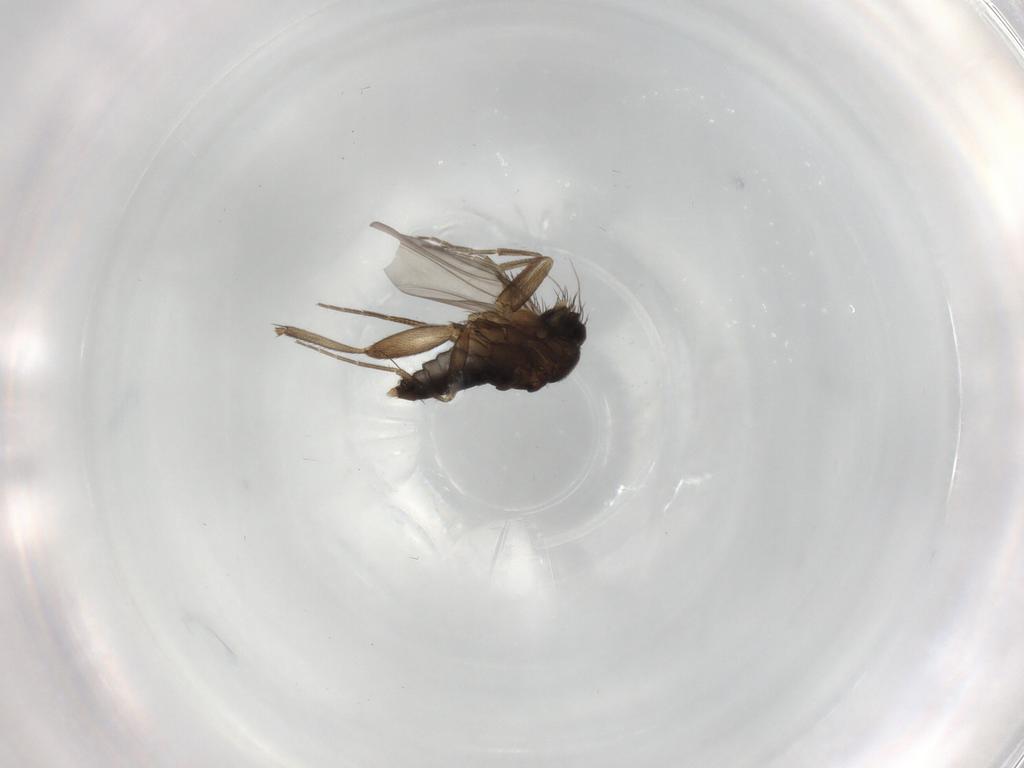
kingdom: Animalia
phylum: Arthropoda
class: Insecta
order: Diptera
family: Phoridae
